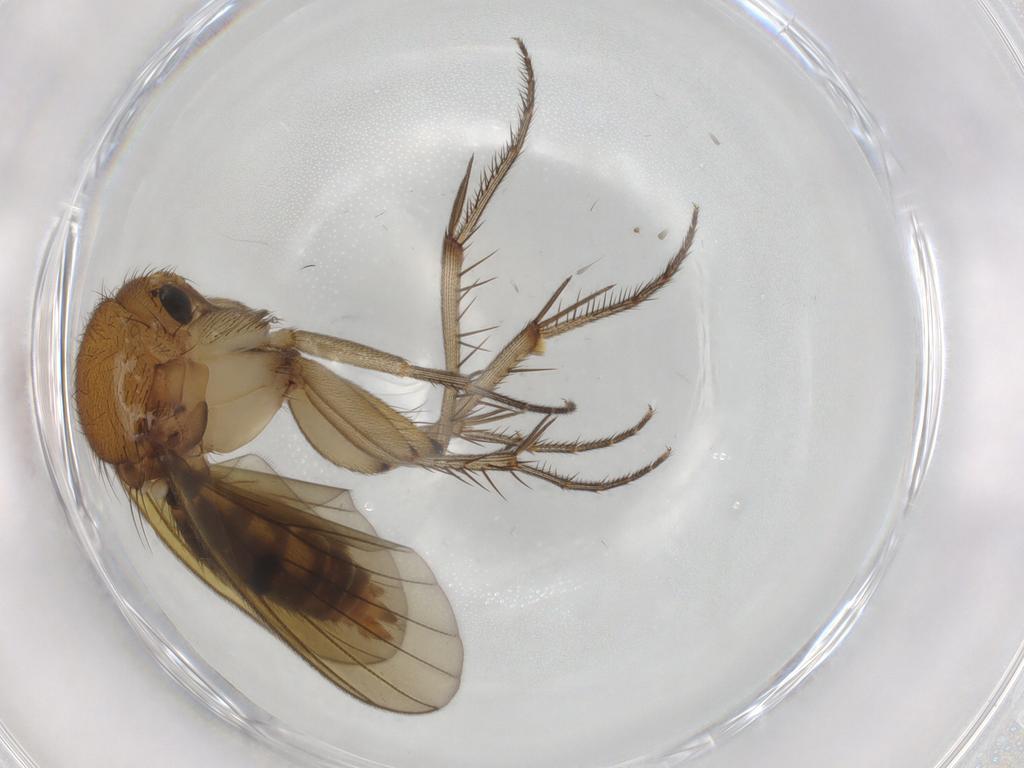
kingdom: Animalia
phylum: Arthropoda
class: Insecta
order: Diptera
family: Mycetophilidae
